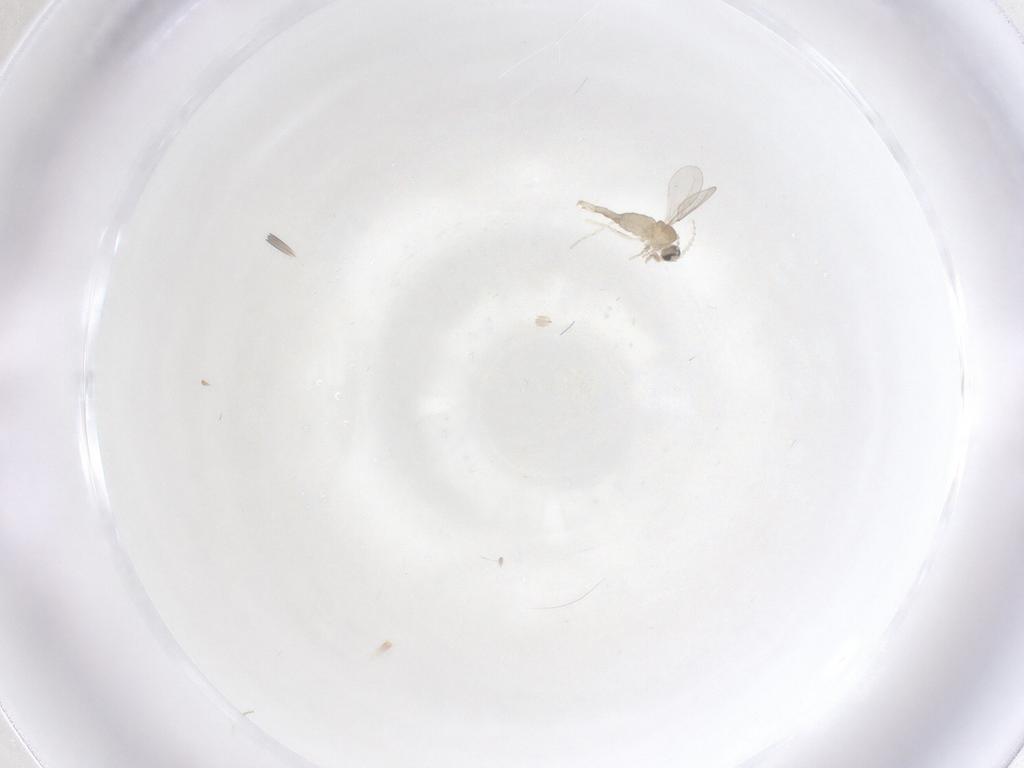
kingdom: Animalia
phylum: Arthropoda
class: Insecta
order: Diptera
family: Cecidomyiidae
